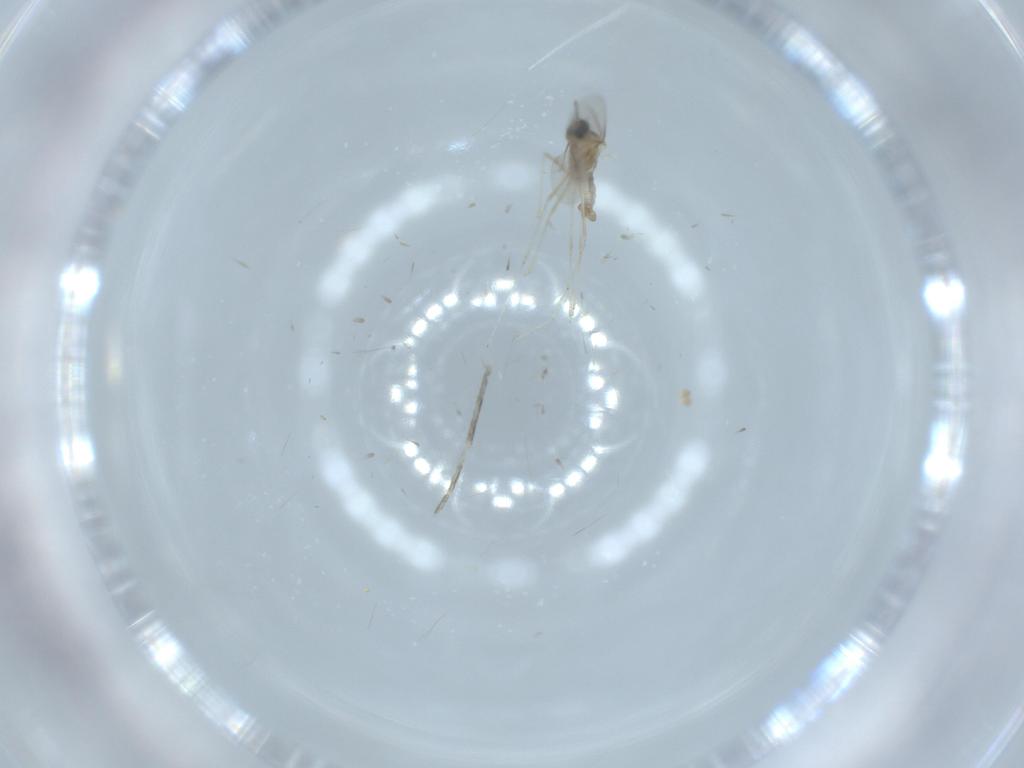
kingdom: Animalia
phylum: Arthropoda
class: Insecta
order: Diptera
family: Cecidomyiidae
